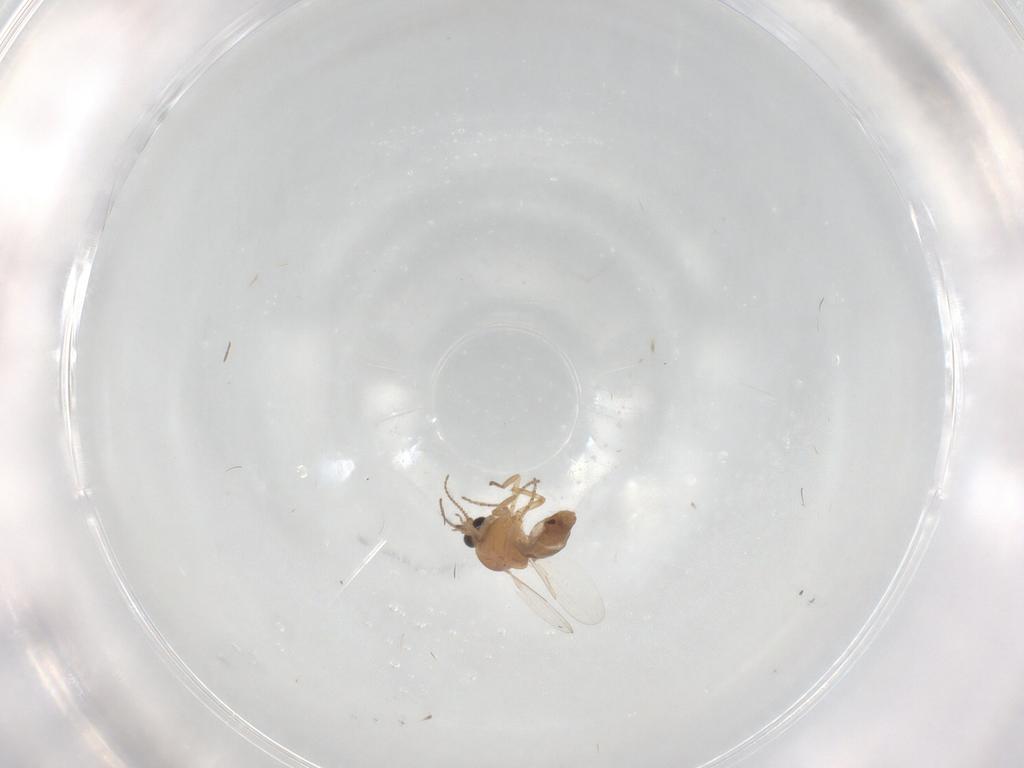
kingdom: Animalia
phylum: Arthropoda
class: Insecta
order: Diptera
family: Ceratopogonidae
